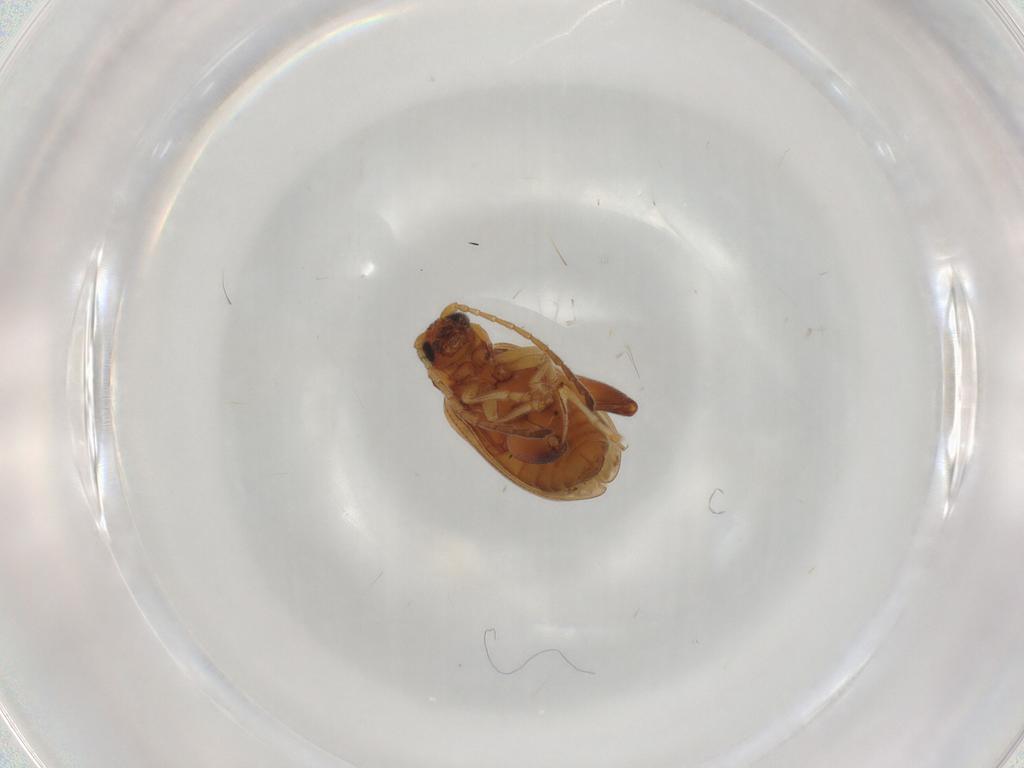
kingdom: Animalia
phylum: Arthropoda
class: Insecta
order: Coleoptera
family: Chrysomelidae
